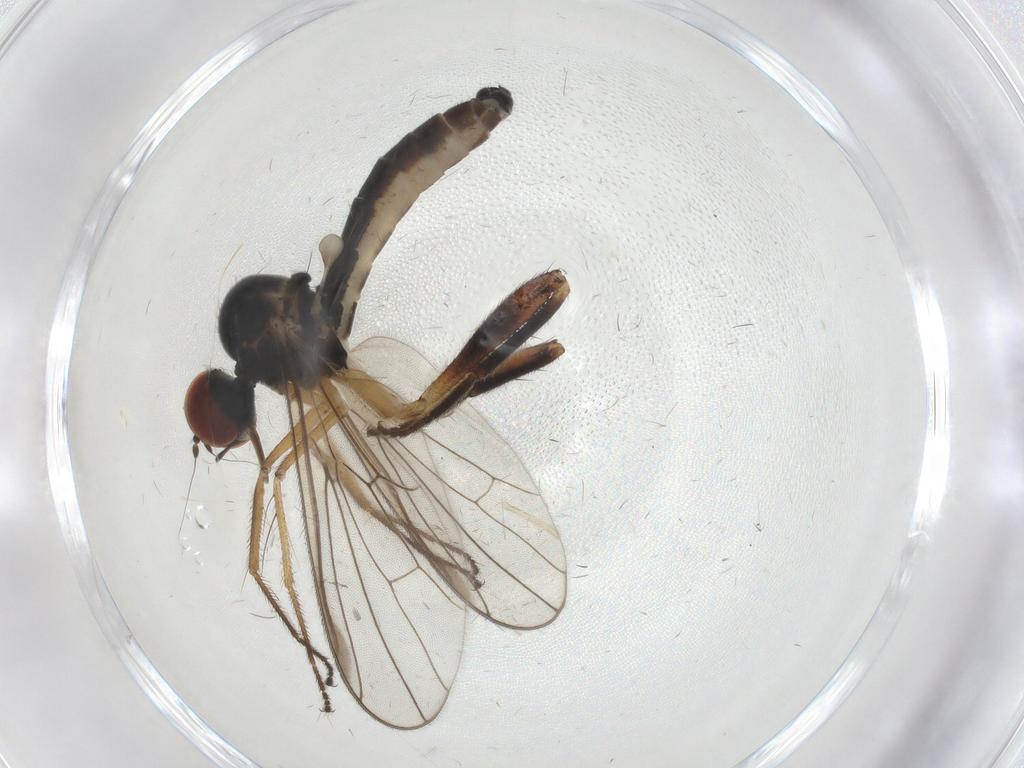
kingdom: Animalia
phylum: Arthropoda
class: Insecta
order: Diptera
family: Hybotidae
